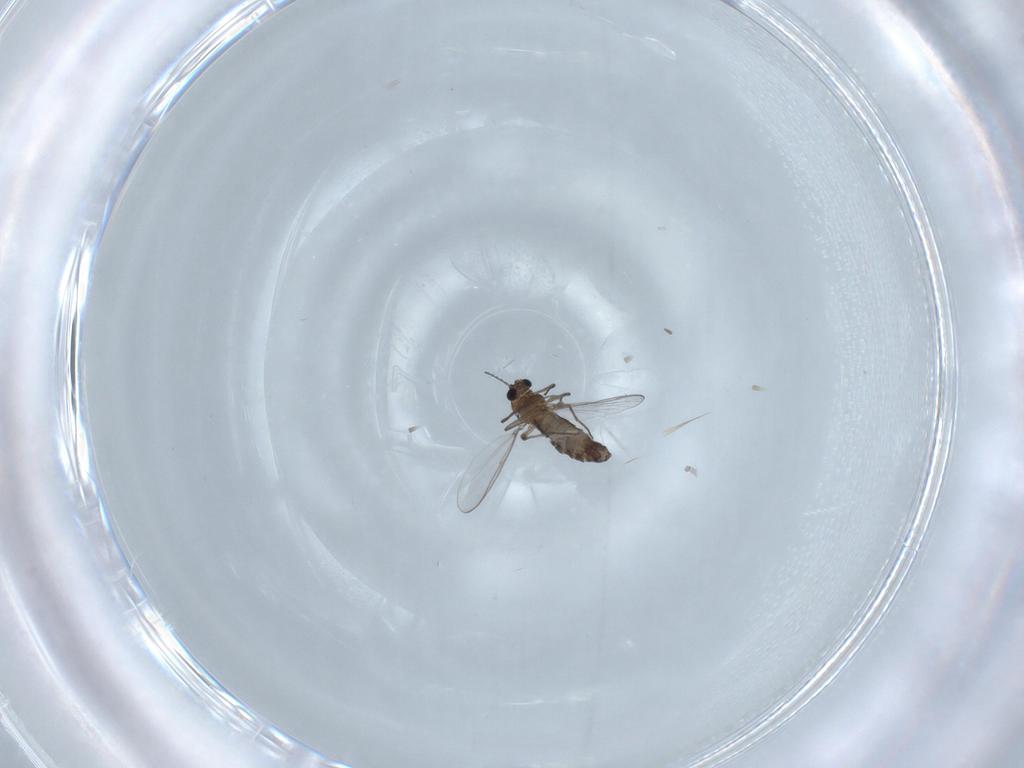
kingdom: Animalia
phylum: Arthropoda
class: Insecta
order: Diptera
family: Chironomidae
